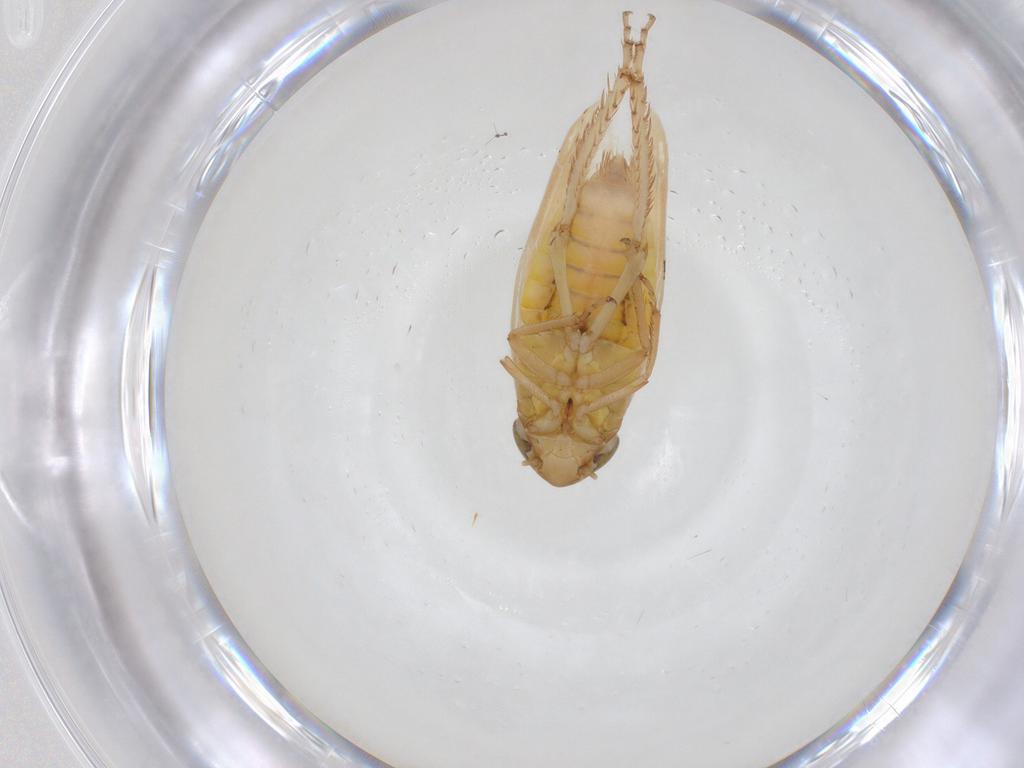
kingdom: Animalia
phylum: Arthropoda
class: Insecta
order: Hemiptera
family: Cicadellidae
